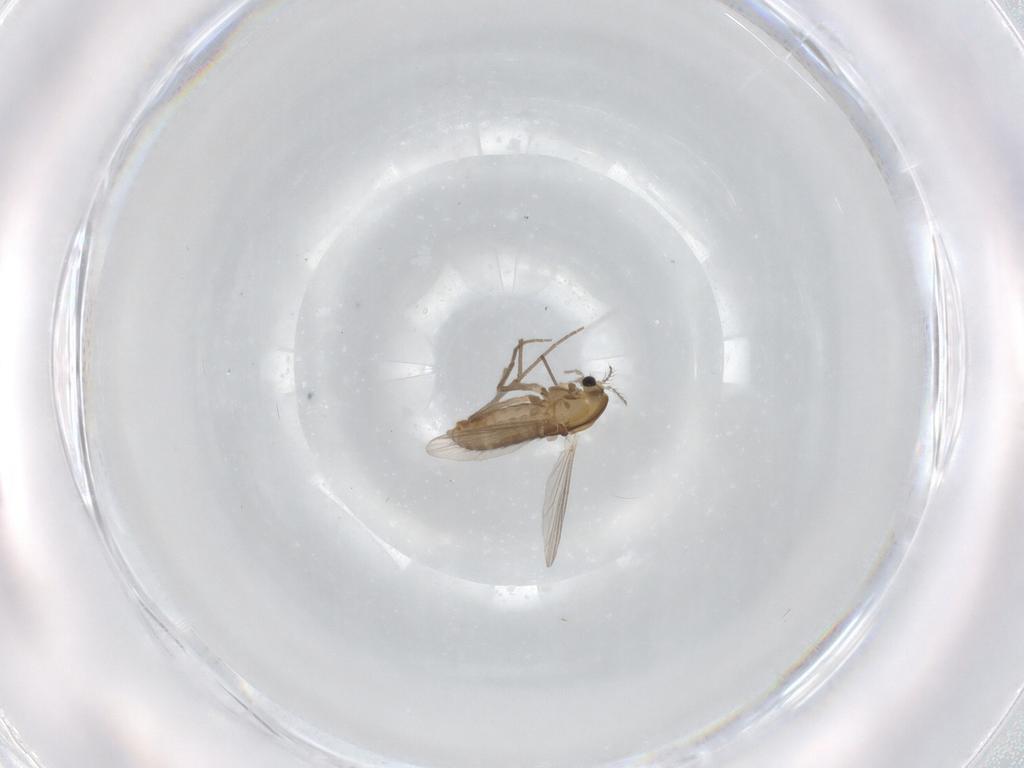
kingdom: Animalia
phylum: Arthropoda
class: Insecta
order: Diptera
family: Chironomidae
